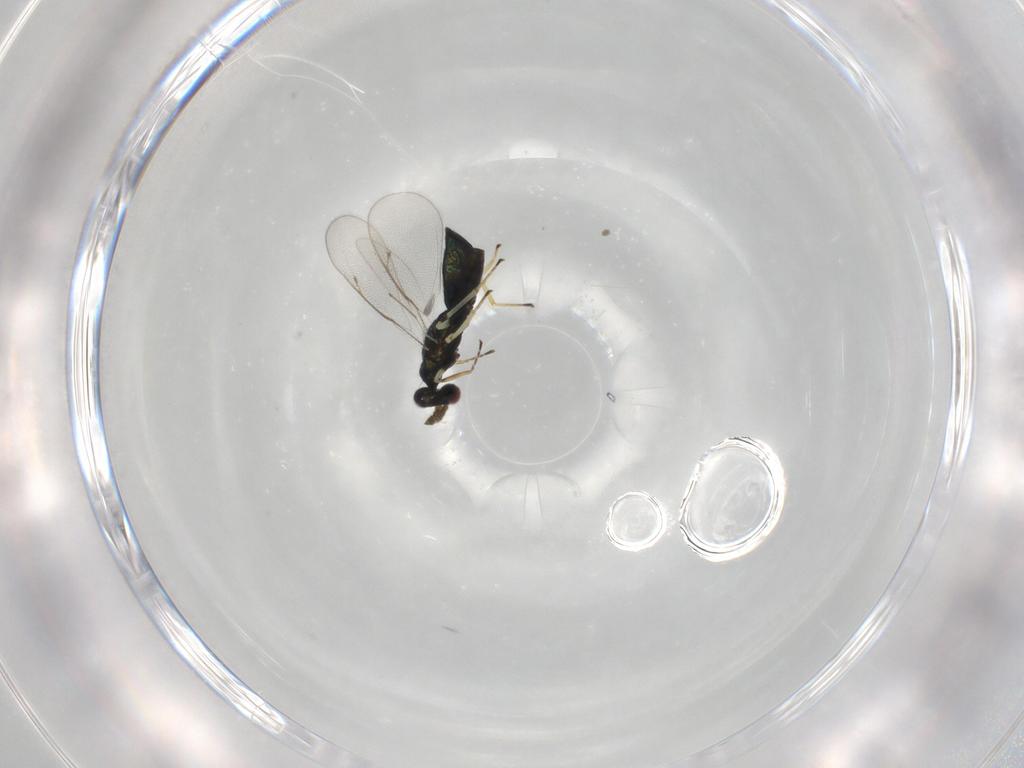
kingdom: Animalia
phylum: Arthropoda
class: Insecta
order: Hymenoptera
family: Eulophidae
